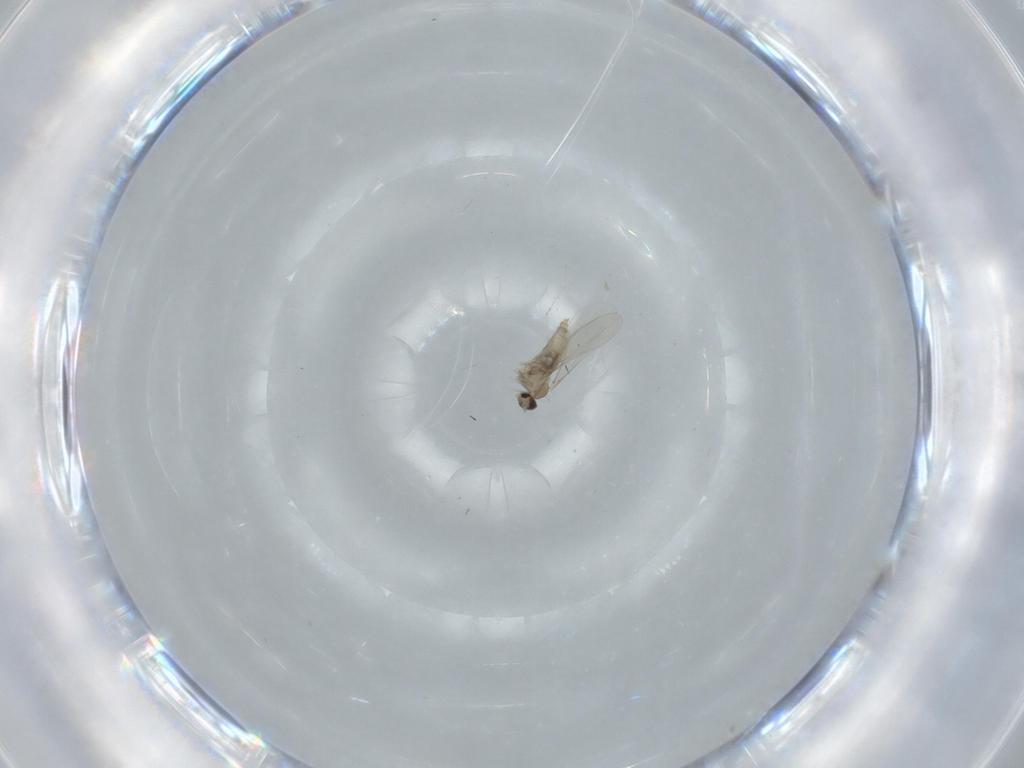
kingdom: Animalia
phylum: Arthropoda
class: Insecta
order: Diptera
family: Cecidomyiidae
